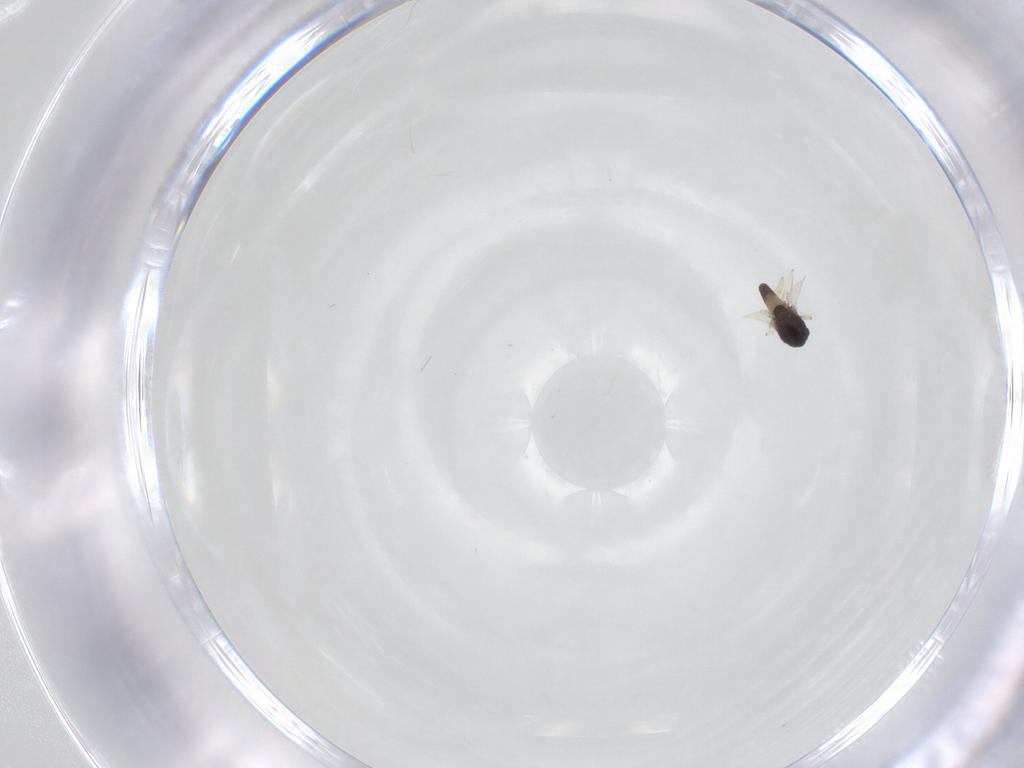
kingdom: Animalia
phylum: Arthropoda
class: Insecta
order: Diptera
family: Chironomidae
